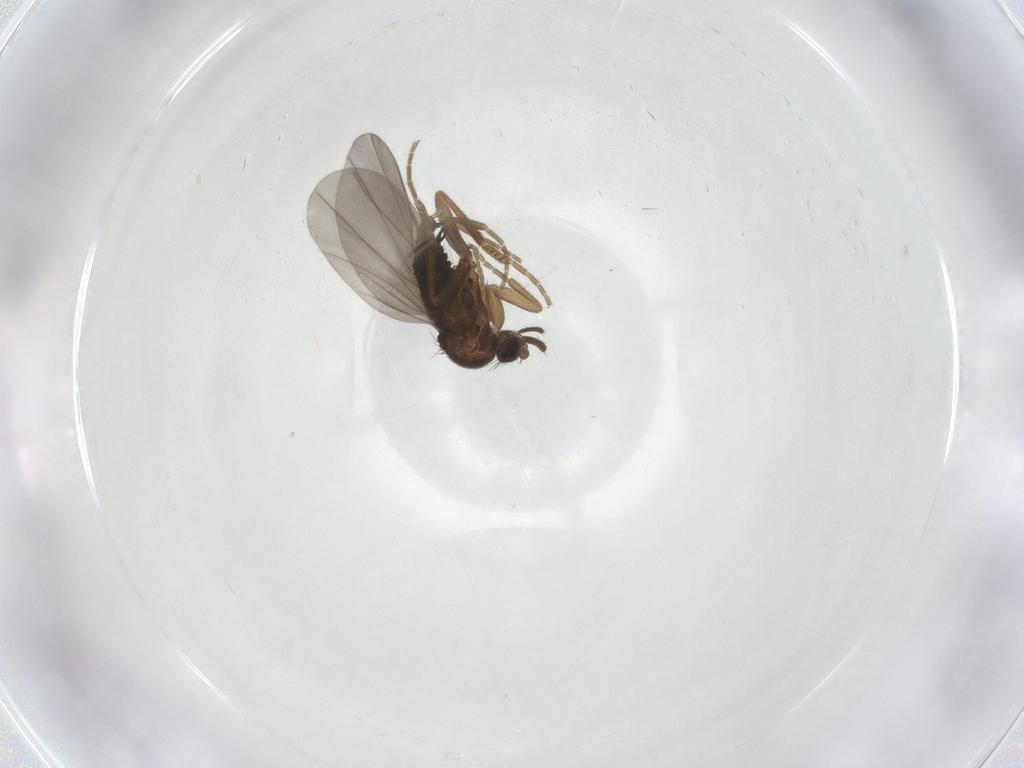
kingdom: Animalia
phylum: Arthropoda
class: Insecta
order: Diptera
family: Phoridae
